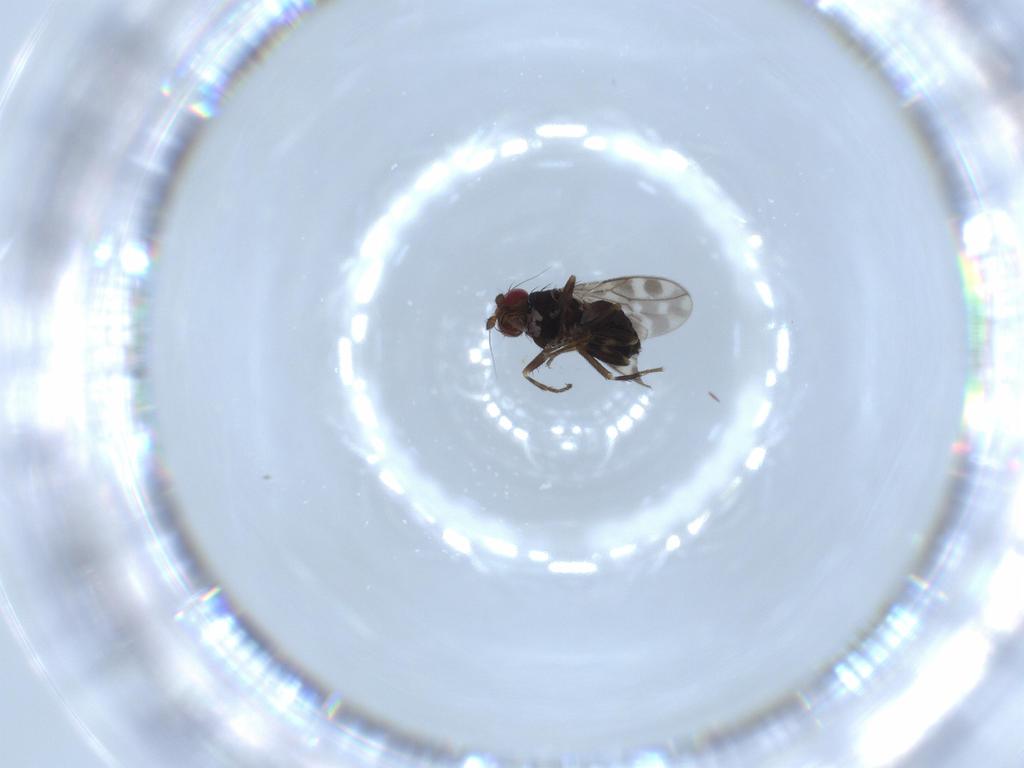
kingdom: Animalia
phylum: Arthropoda
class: Insecta
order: Diptera
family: Sphaeroceridae
